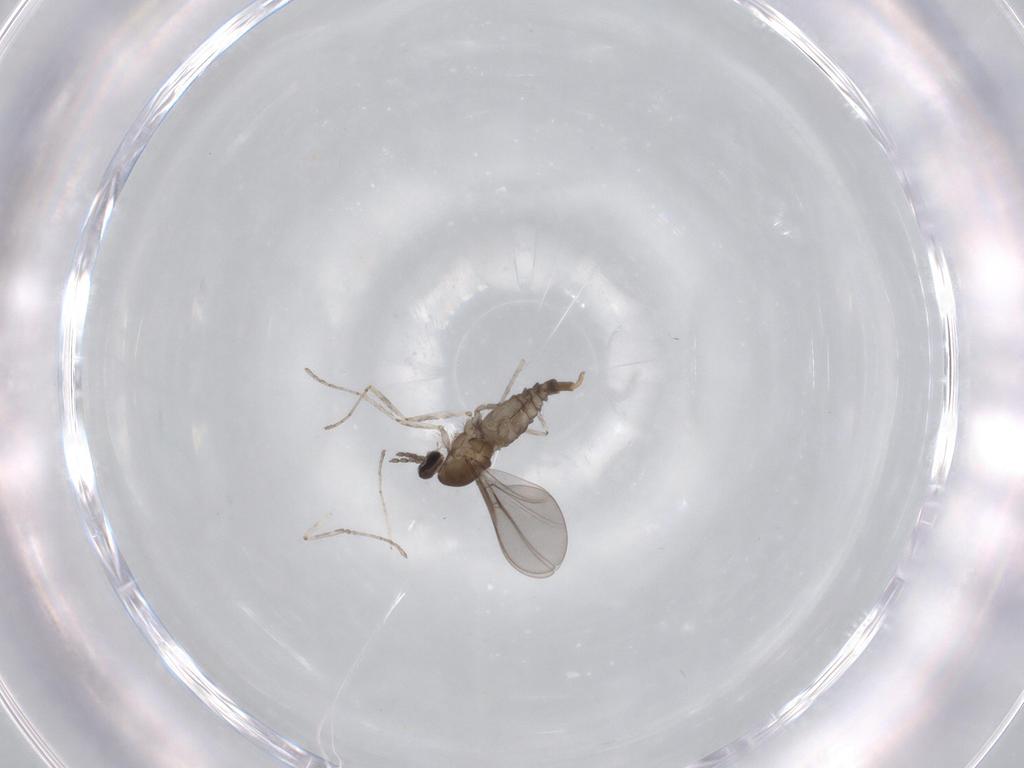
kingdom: Animalia
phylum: Arthropoda
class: Insecta
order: Diptera
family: Cecidomyiidae
